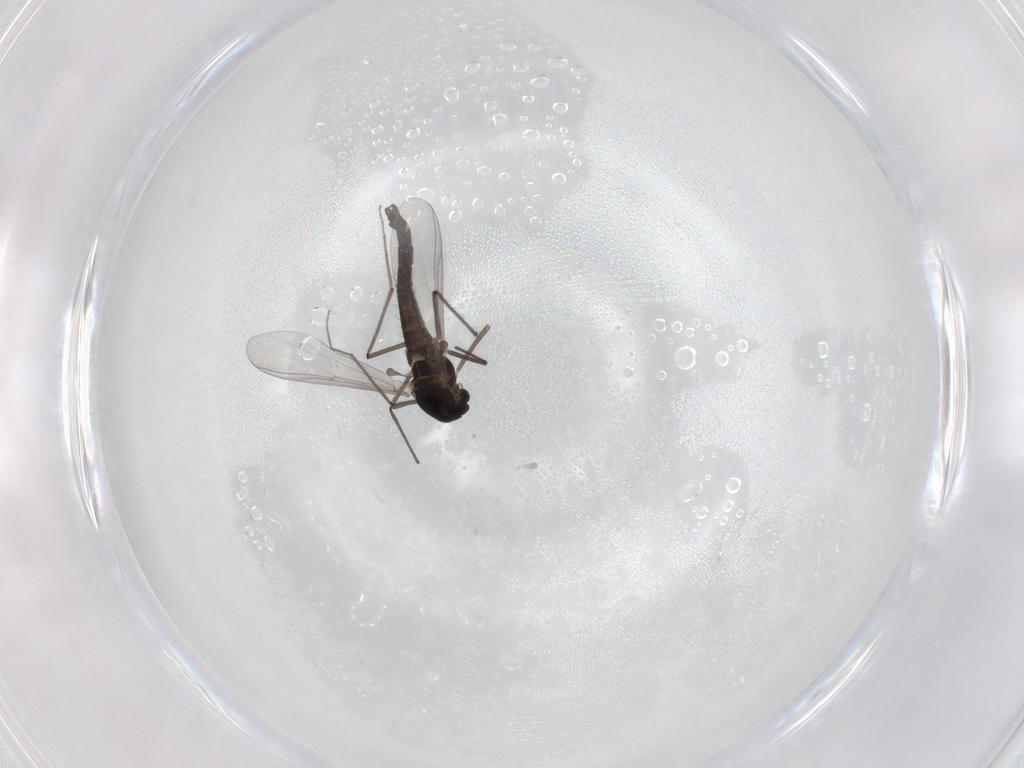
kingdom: Animalia
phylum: Arthropoda
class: Insecta
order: Diptera
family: Chironomidae
